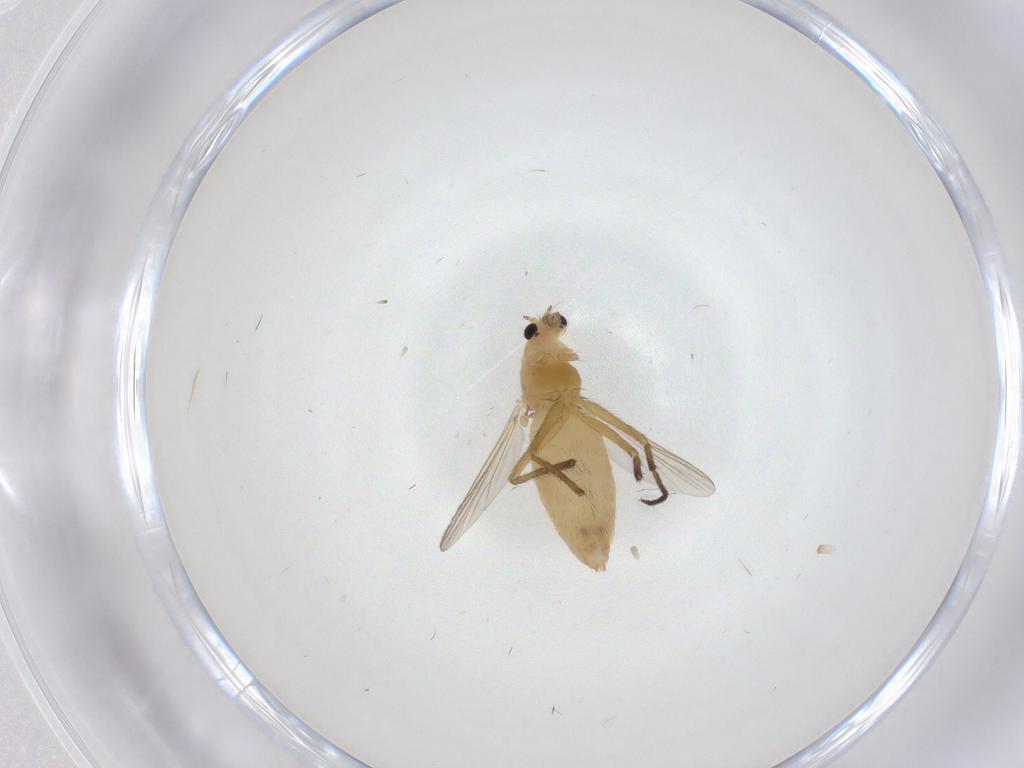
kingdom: Animalia
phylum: Arthropoda
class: Insecta
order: Diptera
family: Chironomidae
